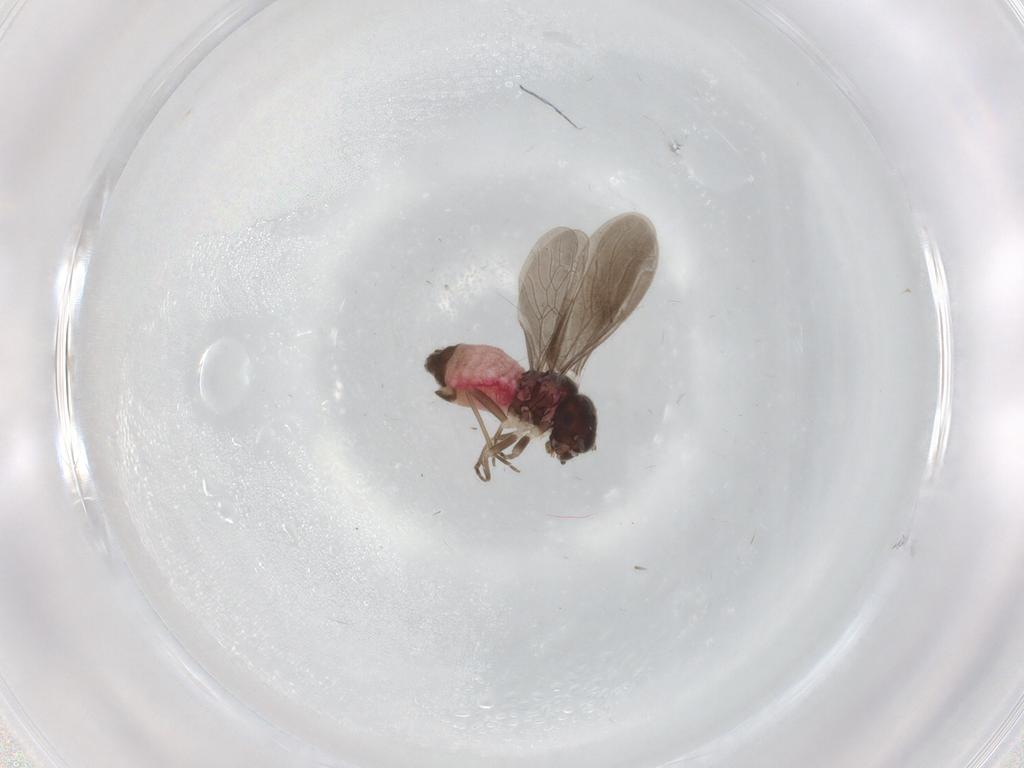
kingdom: Animalia
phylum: Arthropoda
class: Insecta
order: Psocodea
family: Archipsocidae
